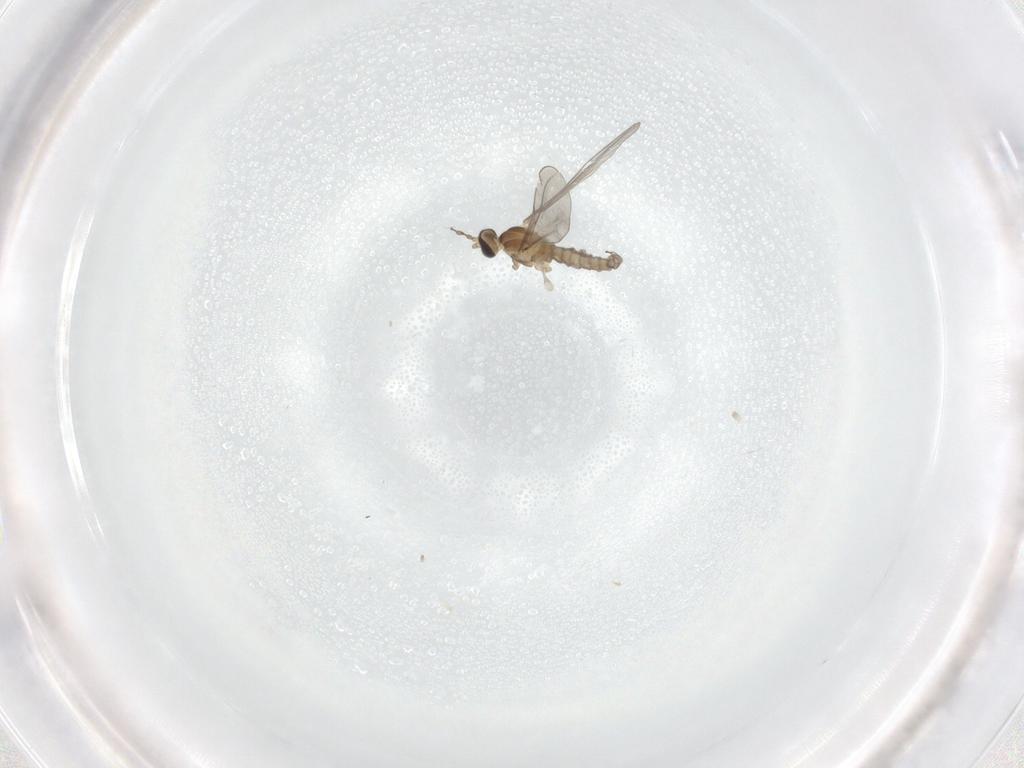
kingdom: Animalia
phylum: Arthropoda
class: Insecta
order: Diptera
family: Cecidomyiidae
